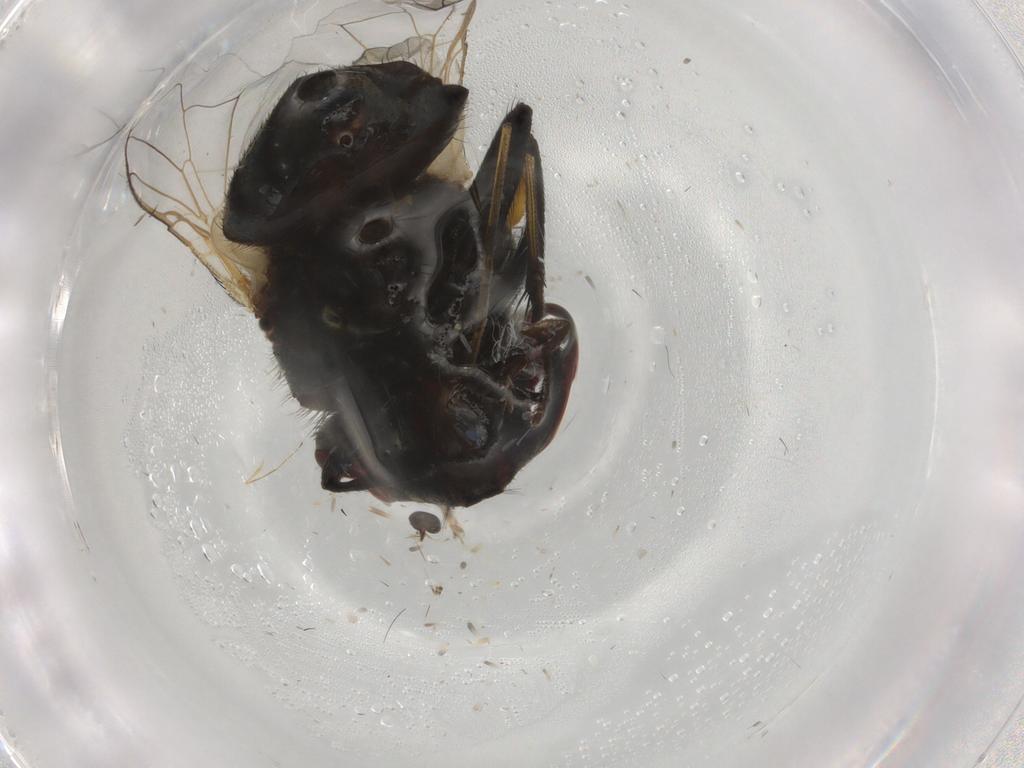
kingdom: Animalia
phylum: Arthropoda
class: Insecta
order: Diptera
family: Muscidae
